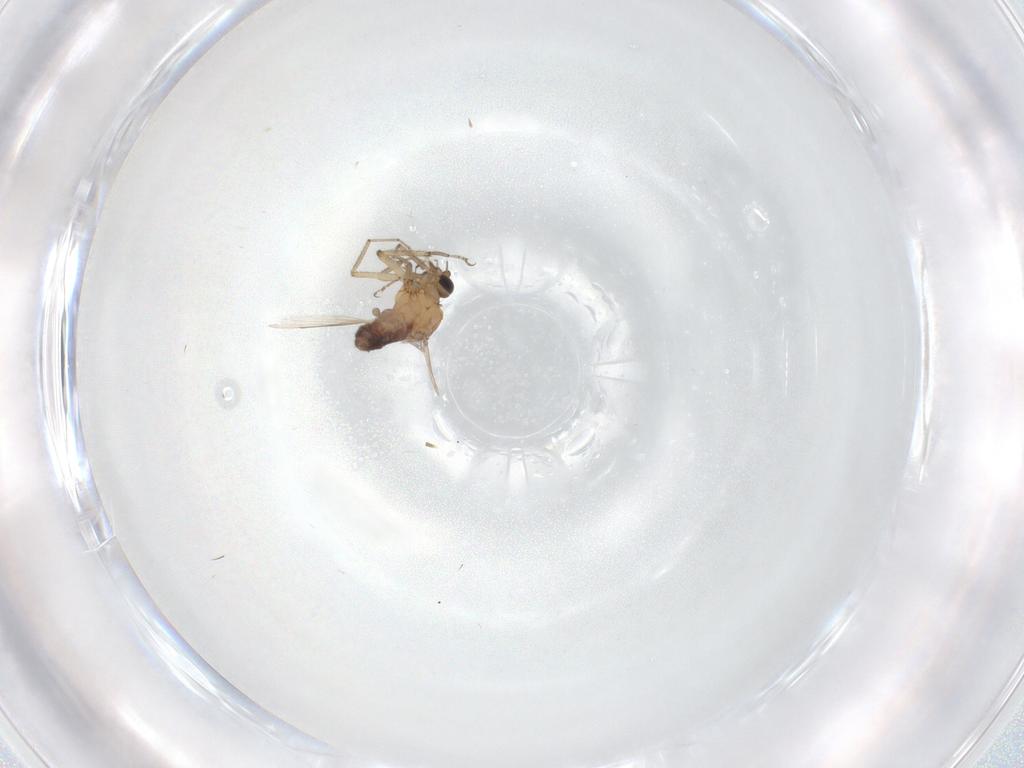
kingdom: Animalia
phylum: Arthropoda
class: Insecta
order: Diptera
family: Ceratopogonidae
